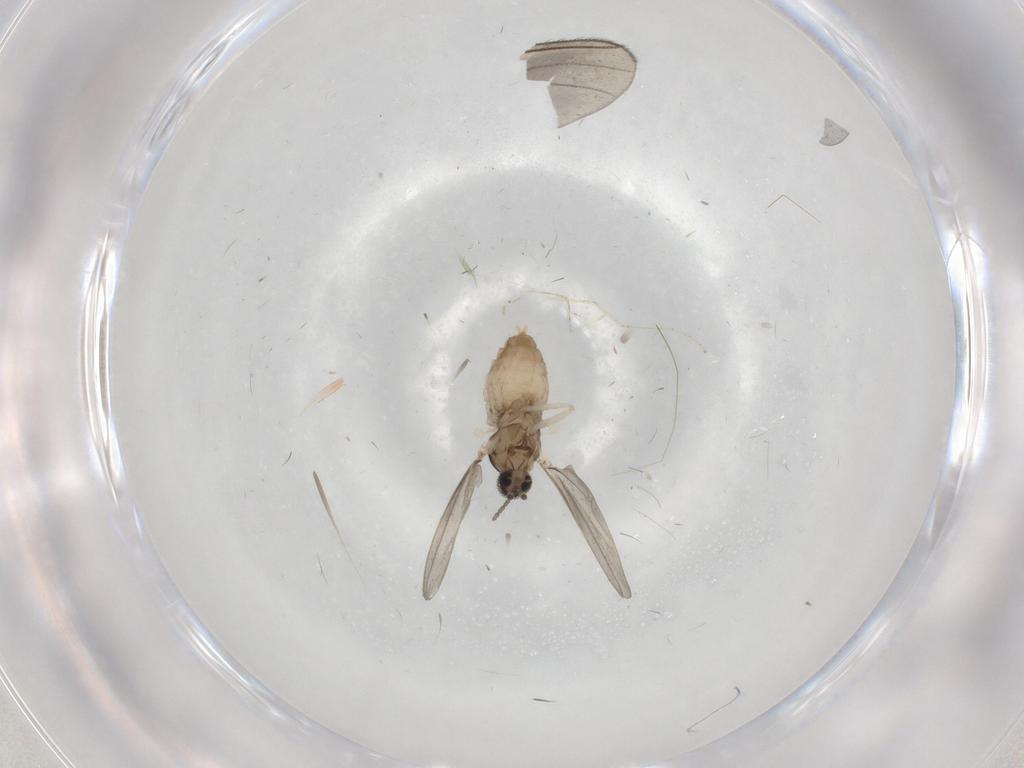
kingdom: Animalia
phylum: Arthropoda
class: Insecta
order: Diptera
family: Cecidomyiidae
